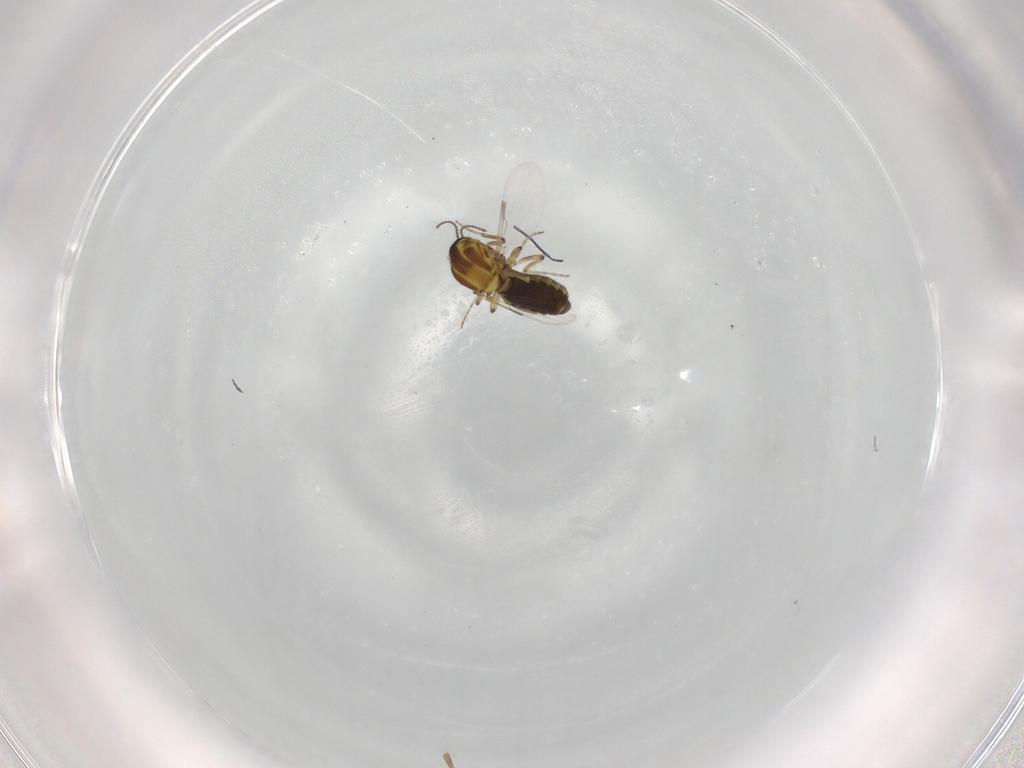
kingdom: Animalia
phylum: Arthropoda
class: Insecta
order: Diptera
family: Ceratopogonidae
